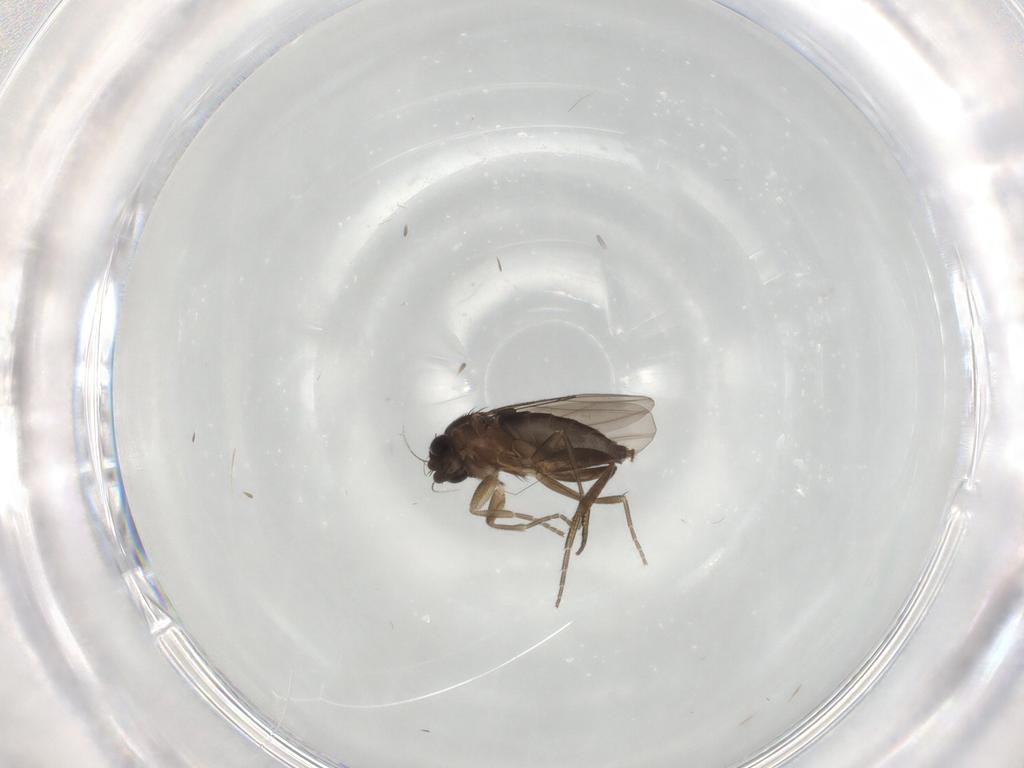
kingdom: Animalia
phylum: Arthropoda
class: Insecta
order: Diptera
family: Phoridae
